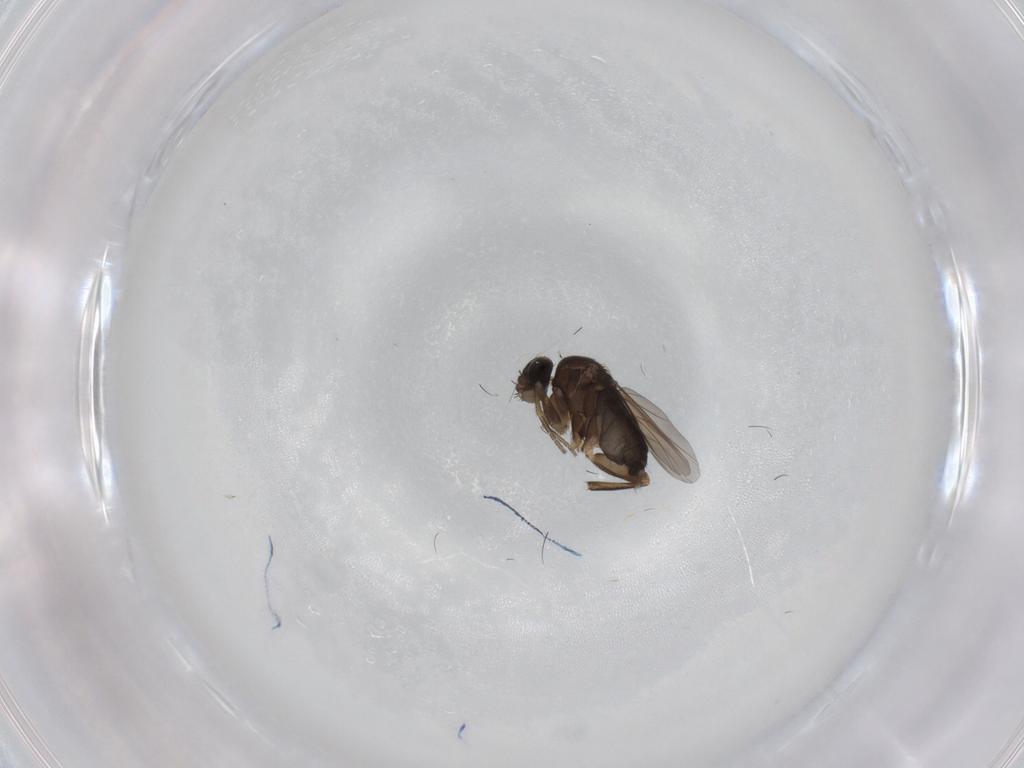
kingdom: Animalia
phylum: Arthropoda
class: Insecta
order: Diptera
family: Phoridae
